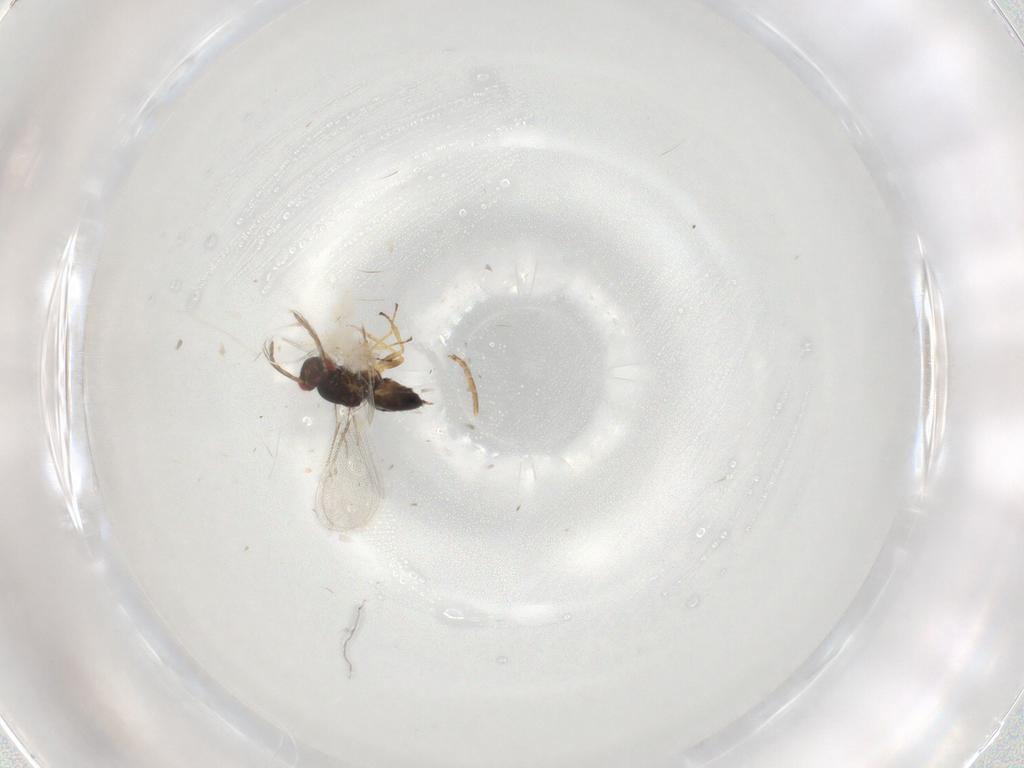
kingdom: Animalia
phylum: Arthropoda
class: Insecta
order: Hymenoptera
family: Eulophidae
